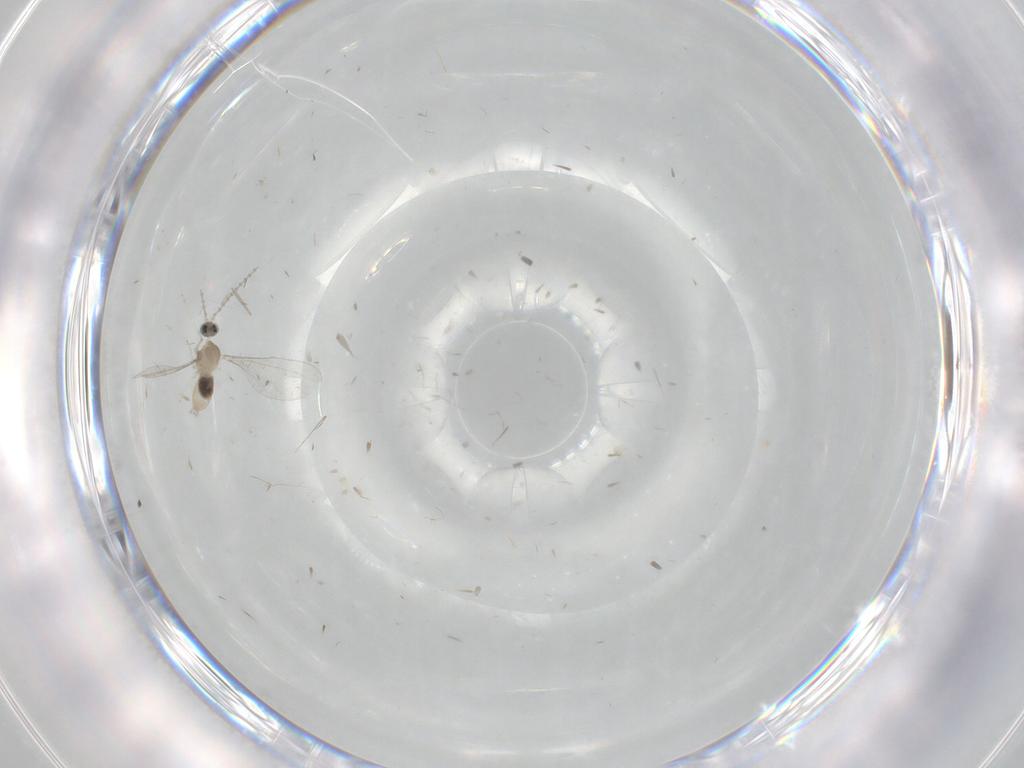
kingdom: Animalia
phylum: Arthropoda
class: Insecta
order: Diptera
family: Cecidomyiidae
